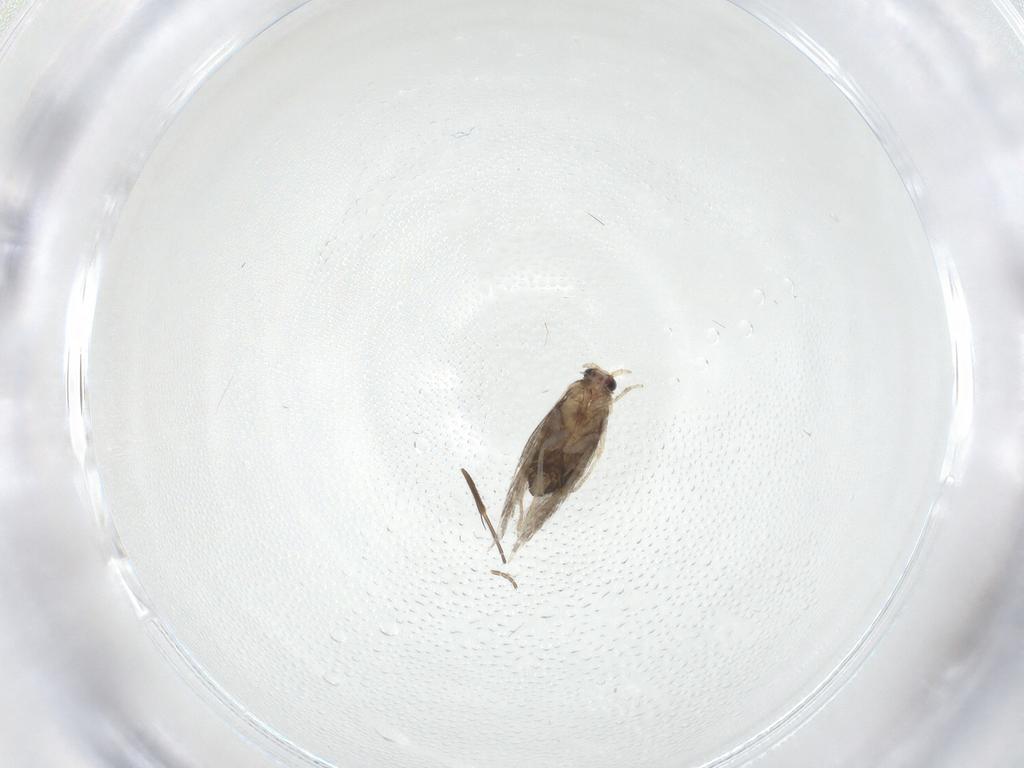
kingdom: Animalia
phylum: Arthropoda
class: Insecta
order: Lepidoptera
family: Nepticulidae
